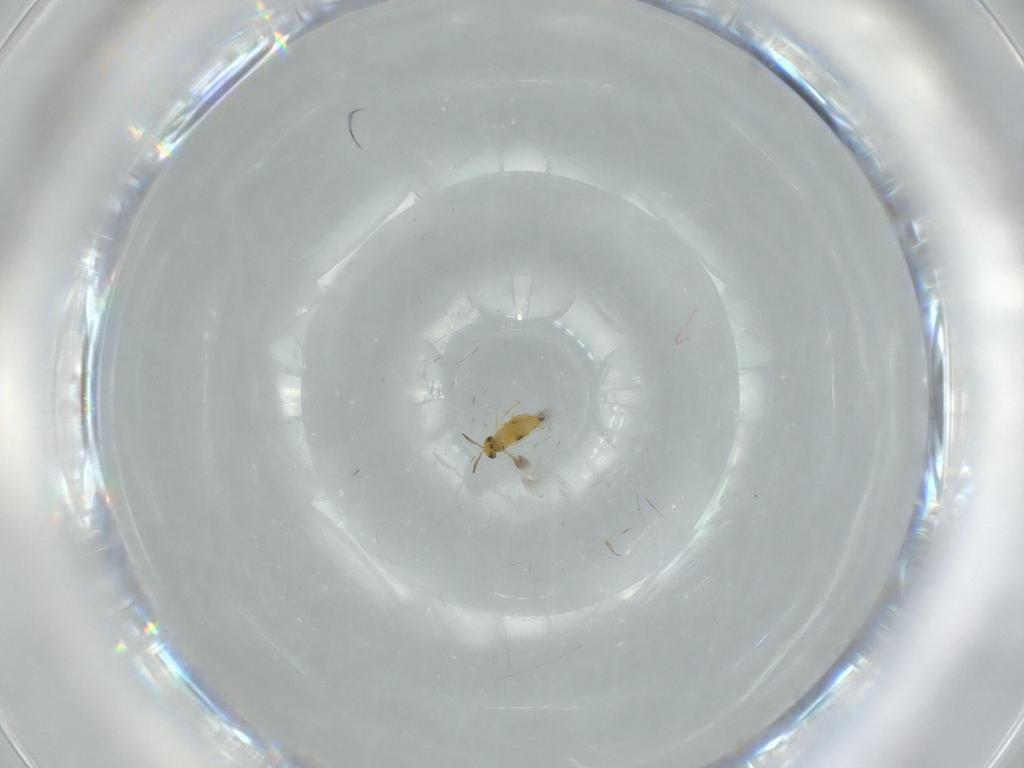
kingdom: Animalia
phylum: Arthropoda
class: Insecta
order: Hymenoptera
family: Signiphoridae
